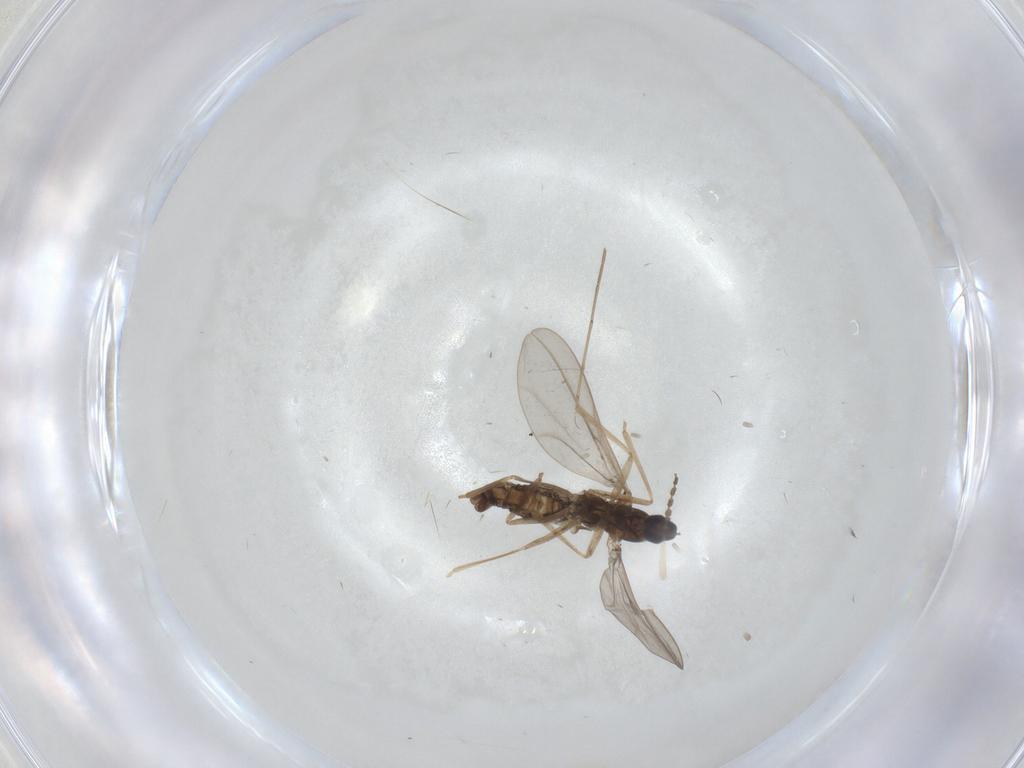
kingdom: Animalia
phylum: Arthropoda
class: Insecta
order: Diptera
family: Cecidomyiidae
